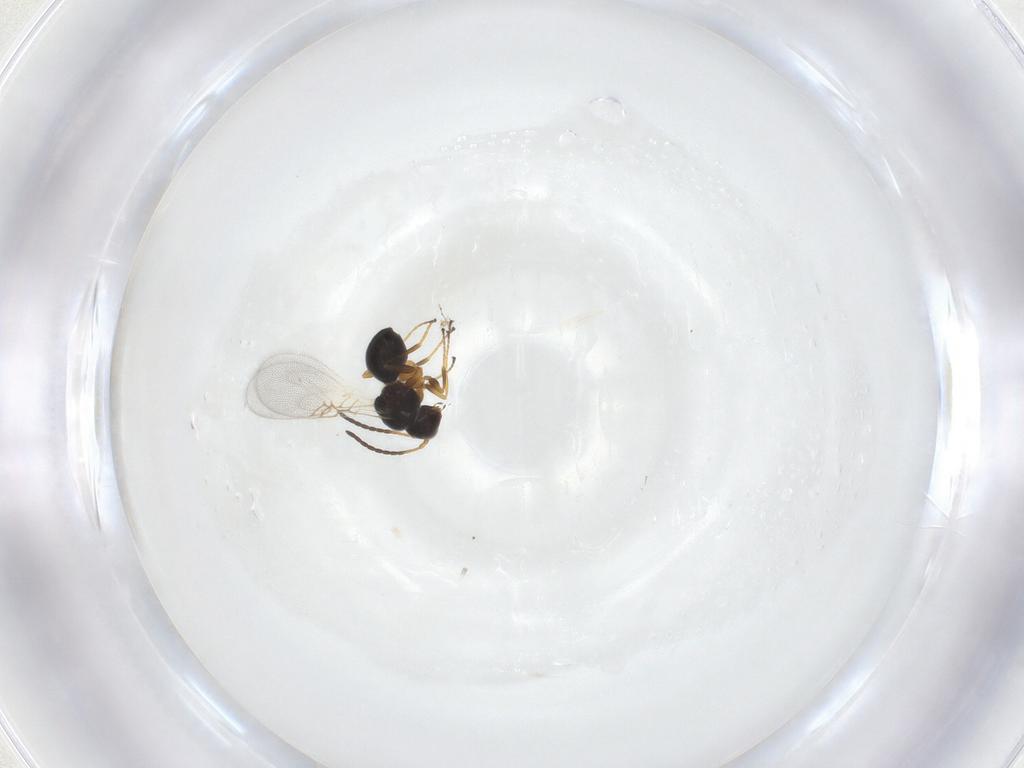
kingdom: Animalia
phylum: Arthropoda
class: Insecta
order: Hymenoptera
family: Figitidae
